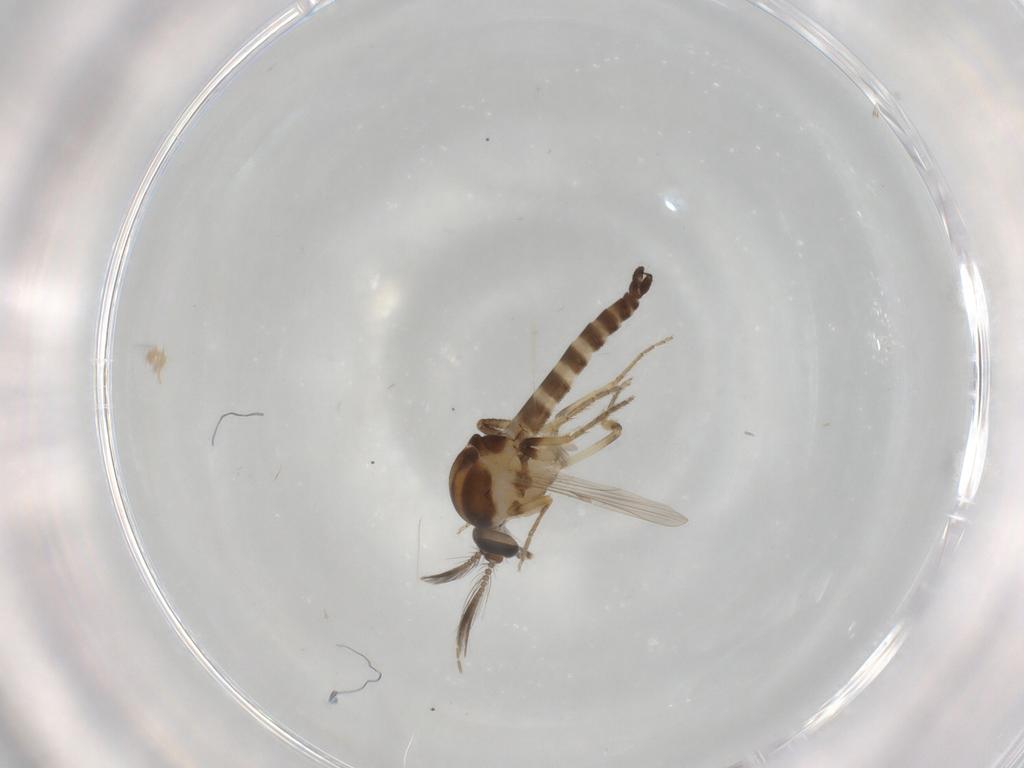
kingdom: Animalia
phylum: Arthropoda
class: Insecta
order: Diptera
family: Ceratopogonidae
